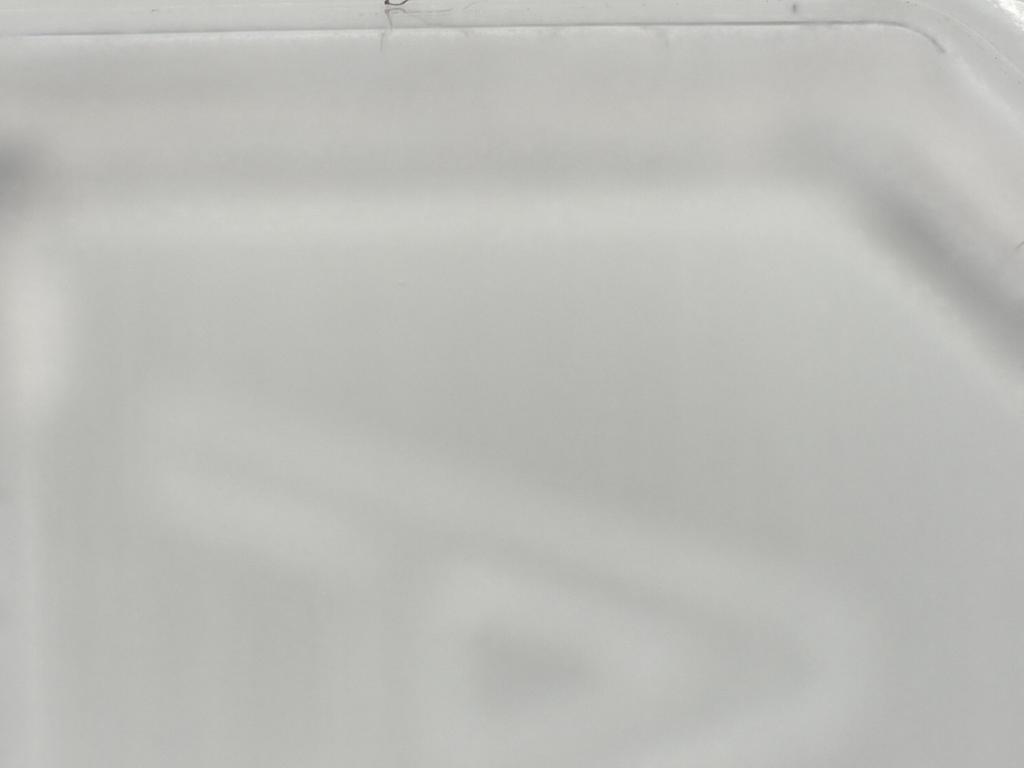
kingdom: Animalia
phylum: Arthropoda
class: Insecta
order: Diptera
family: Phoridae
